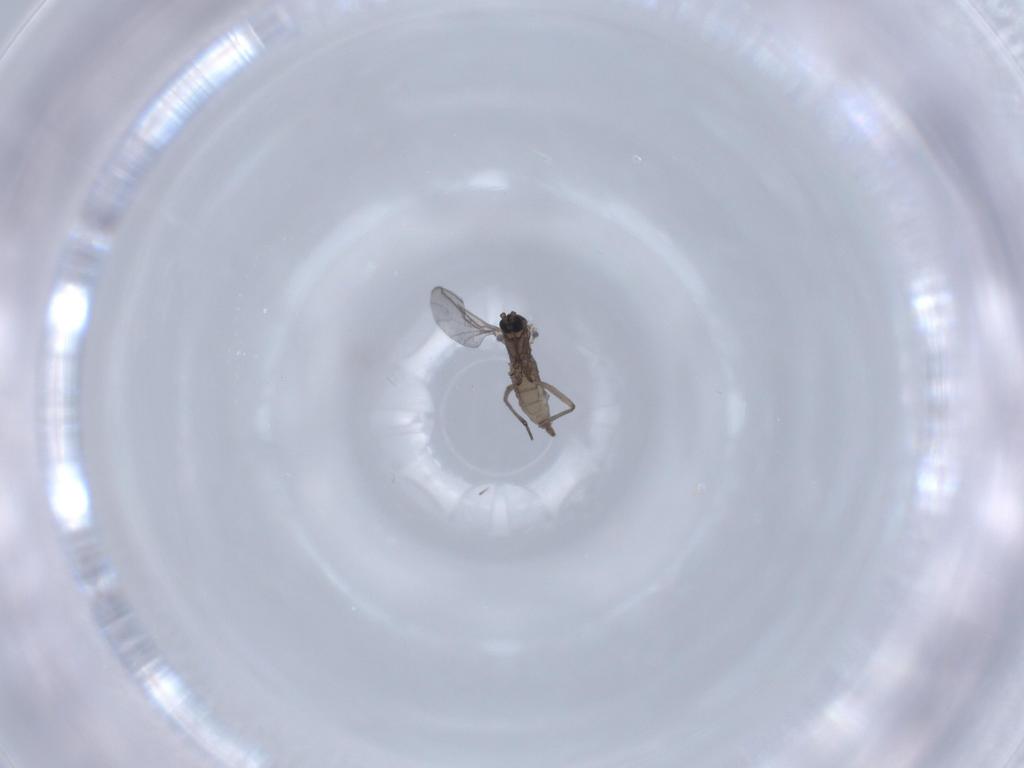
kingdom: Animalia
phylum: Arthropoda
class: Insecta
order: Diptera
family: Sciaridae
